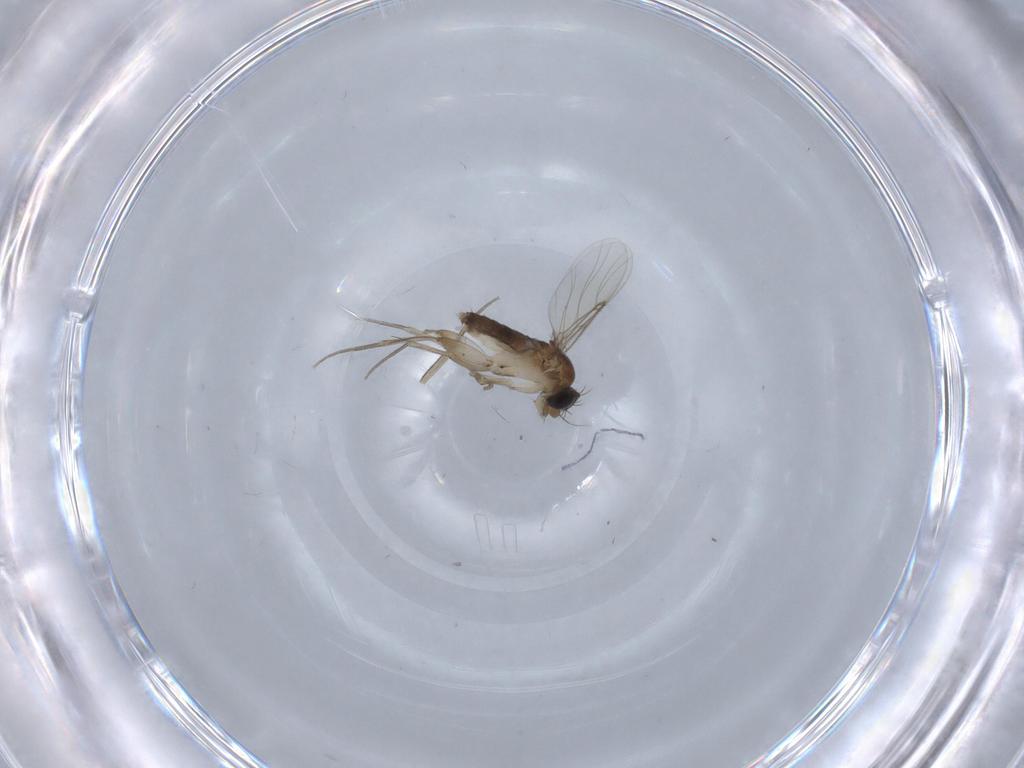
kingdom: Animalia
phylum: Arthropoda
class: Insecta
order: Diptera
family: Phoridae
